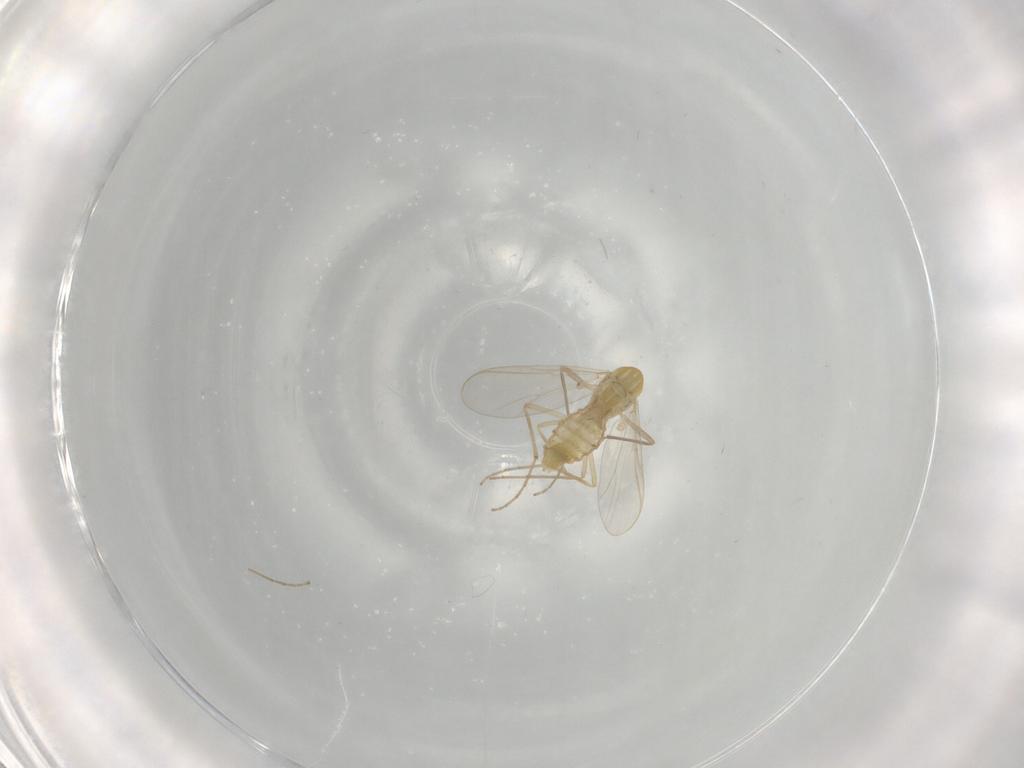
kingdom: Animalia
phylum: Arthropoda
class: Insecta
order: Diptera
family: Chironomidae
